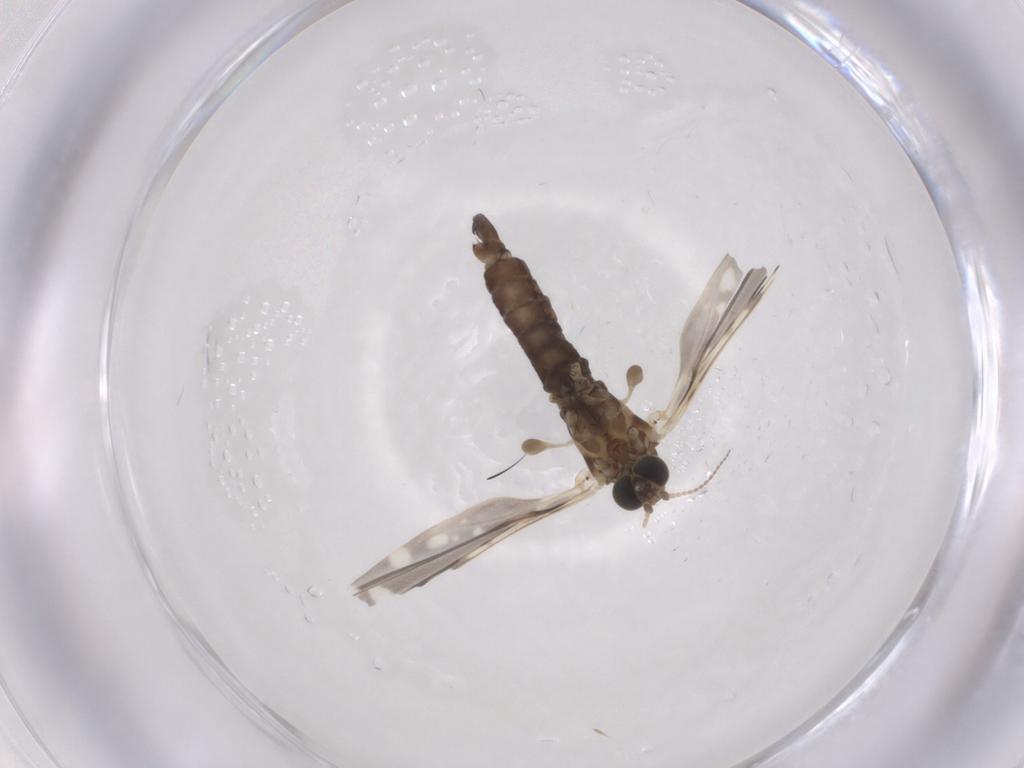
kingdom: Animalia
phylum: Arthropoda
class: Insecta
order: Diptera
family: Limoniidae
